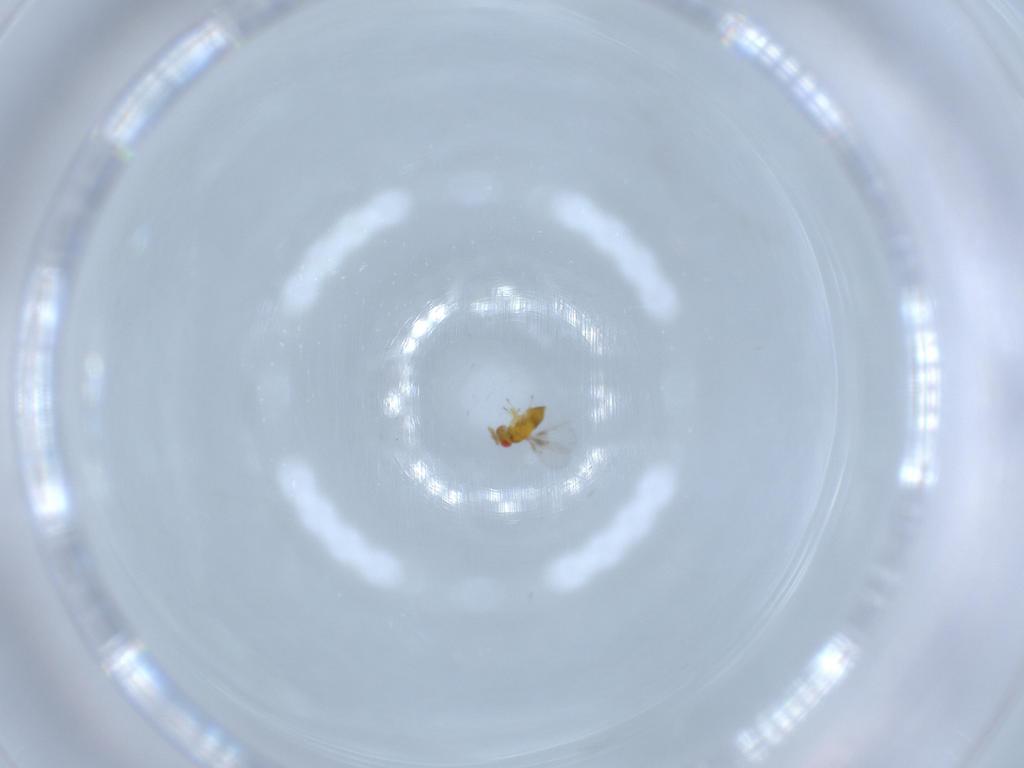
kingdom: Animalia
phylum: Arthropoda
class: Insecta
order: Hymenoptera
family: Trichogrammatidae
